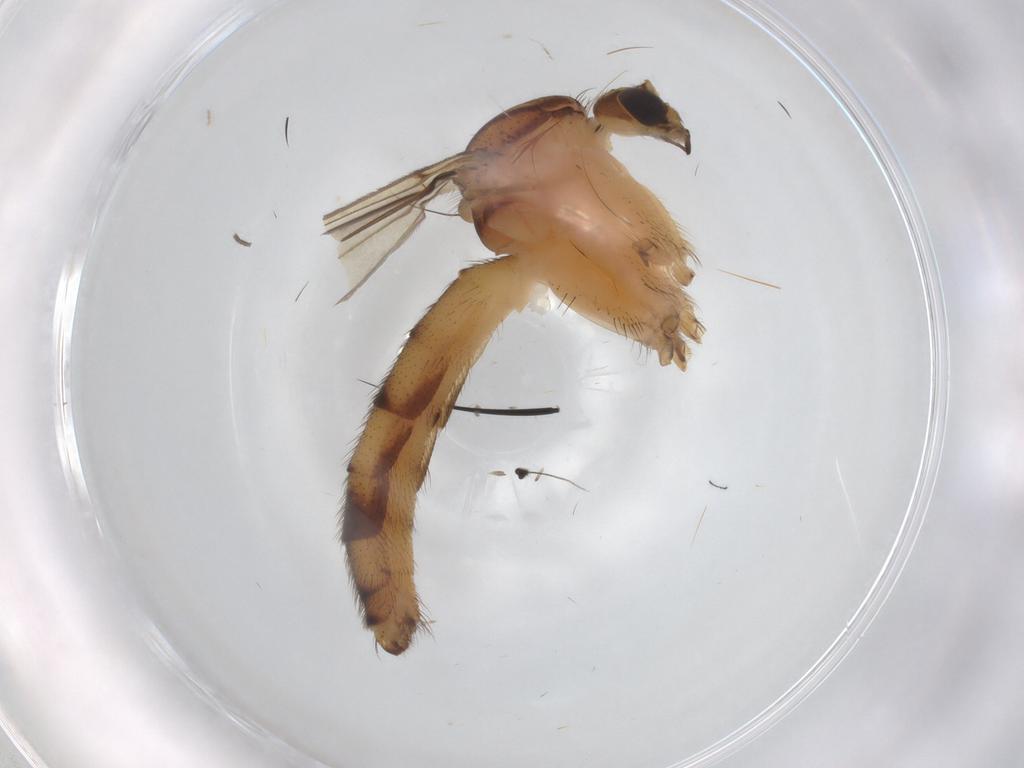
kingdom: Animalia
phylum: Arthropoda
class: Insecta
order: Diptera
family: Mycetophilidae
